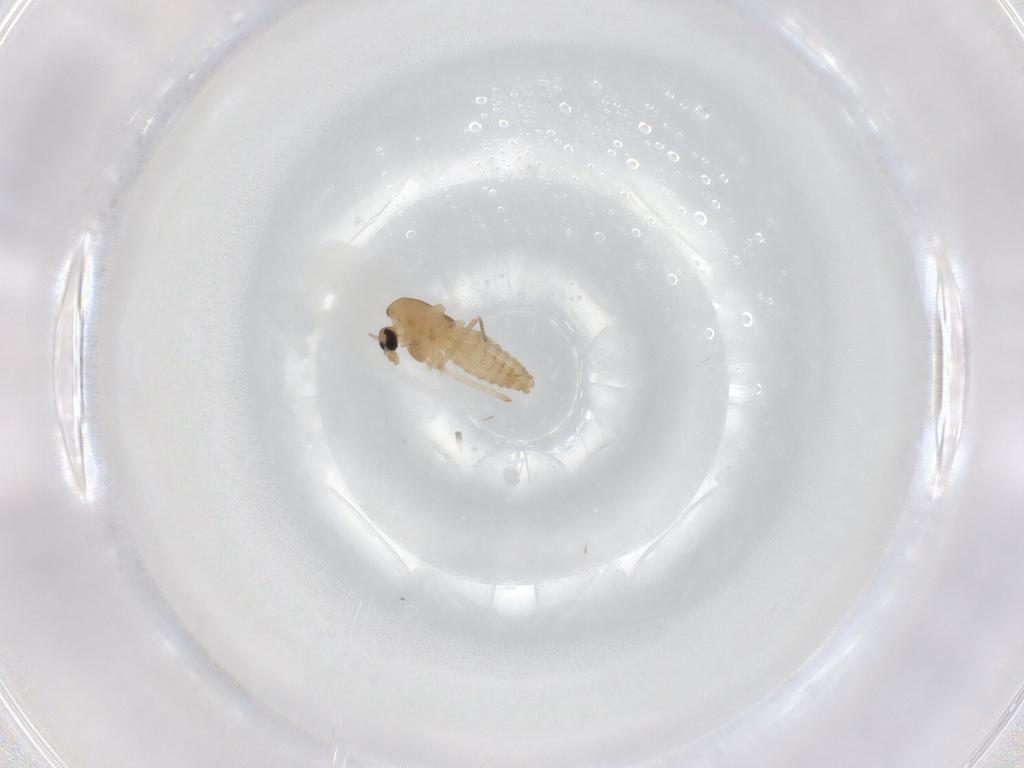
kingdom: Animalia
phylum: Arthropoda
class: Insecta
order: Diptera
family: Chironomidae
